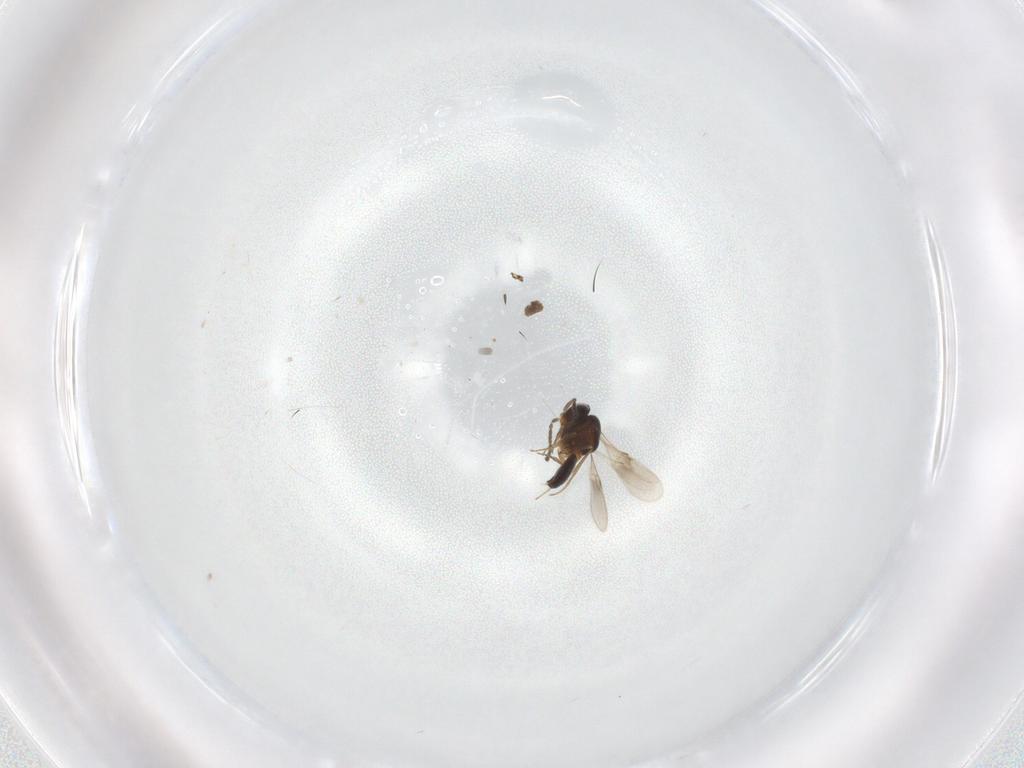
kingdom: Animalia
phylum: Arthropoda
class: Insecta
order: Hymenoptera
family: Scelionidae
